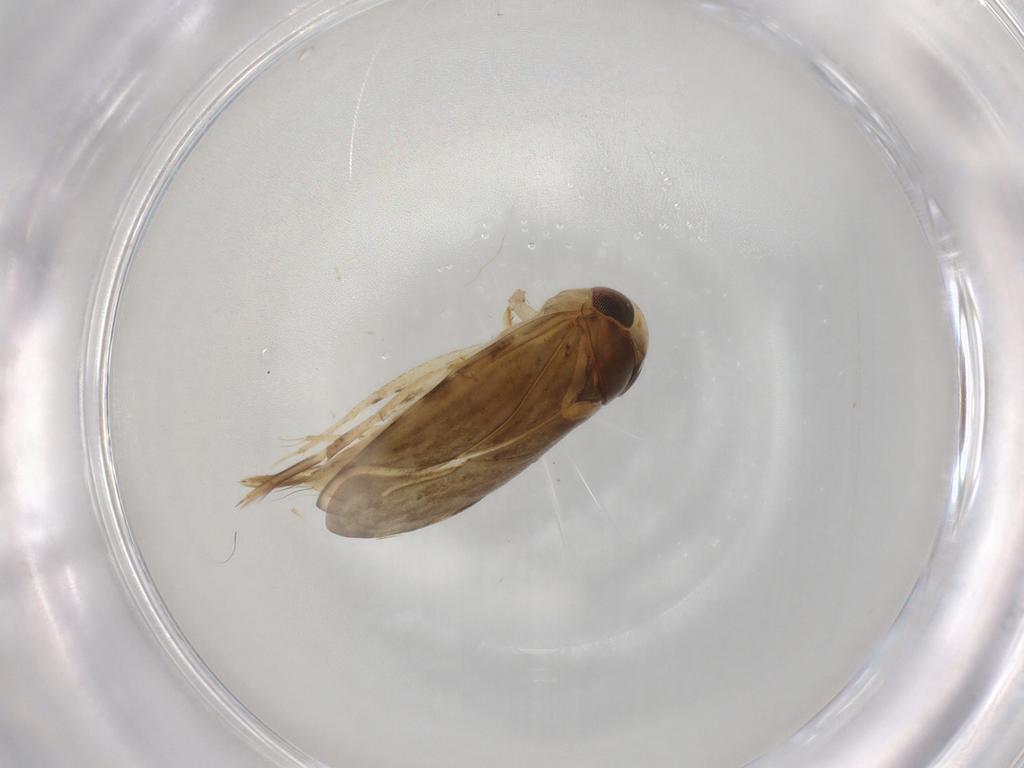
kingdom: Animalia
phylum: Arthropoda
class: Insecta
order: Hemiptera
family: Corixidae
